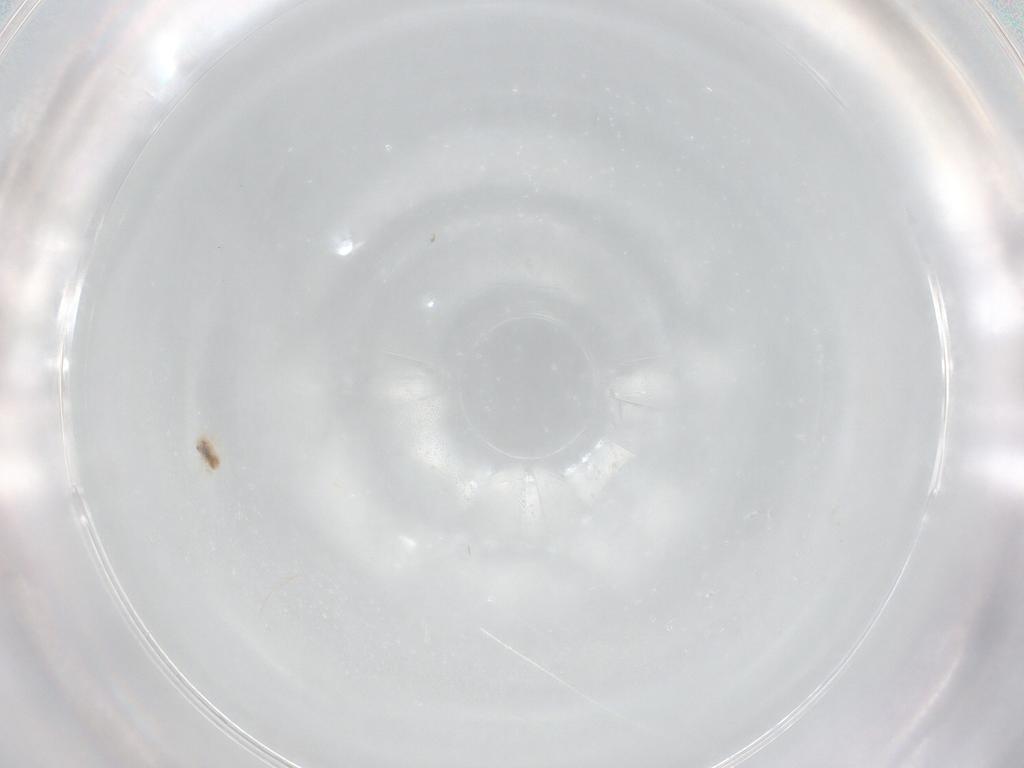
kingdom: Animalia
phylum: Arthropoda
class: Arachnida
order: Trombidiformes
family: Anystidae
